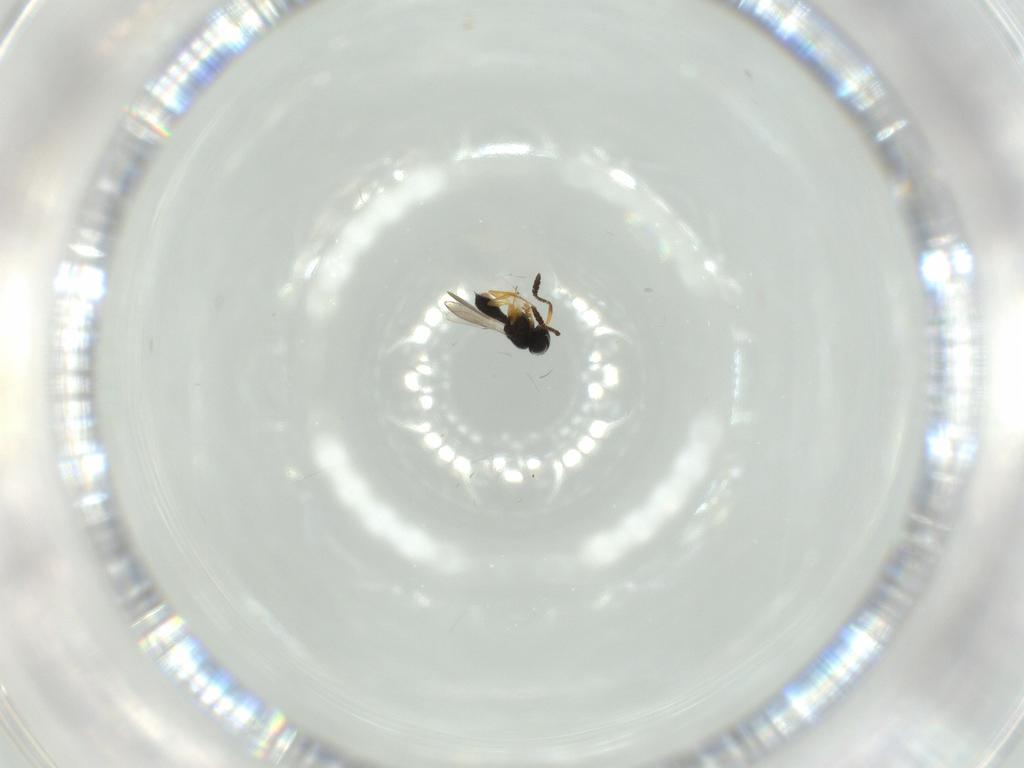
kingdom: Animalia
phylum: Arthropoda
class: Insecta
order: Hymenoptera
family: Scelionidae
